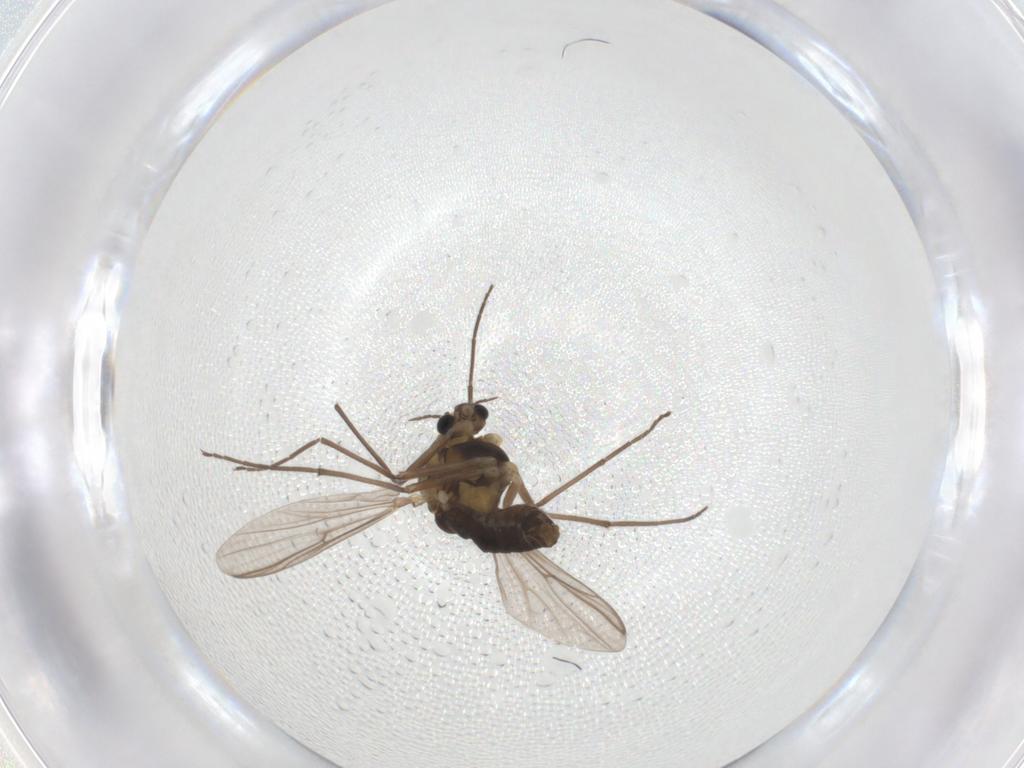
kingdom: Animalia
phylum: Arthropoda
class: Insecta
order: Diptera
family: Chironomidae
